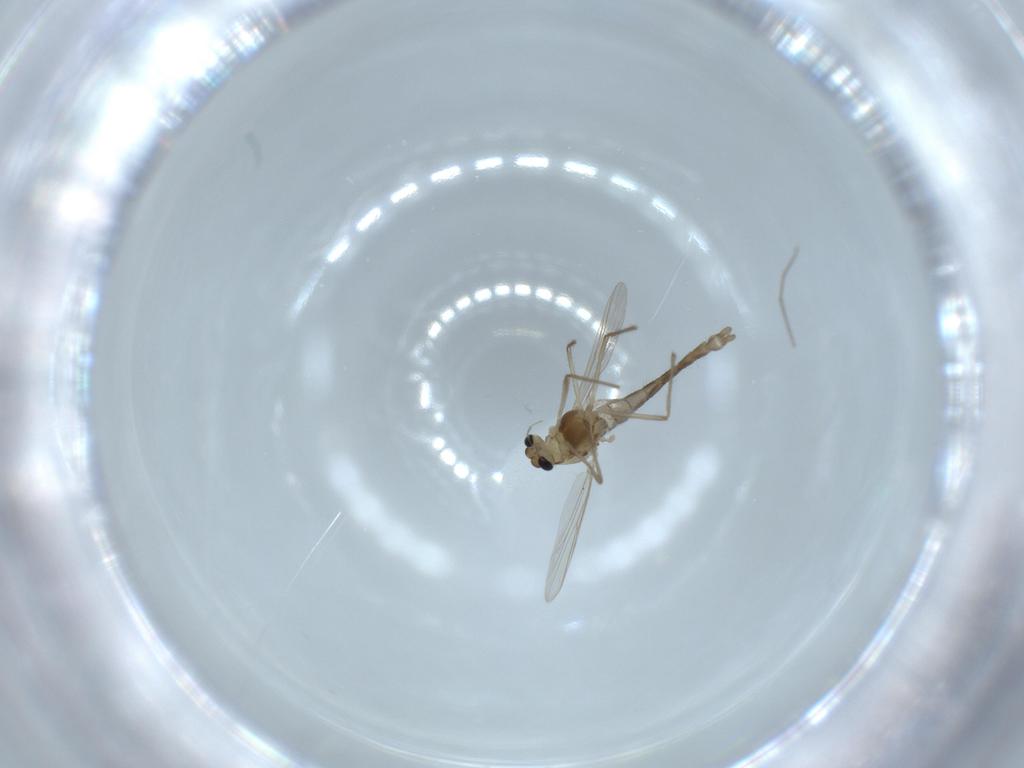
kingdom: Animalia
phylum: Arthropoda
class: Insecta
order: Diptera
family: Chironomidae
